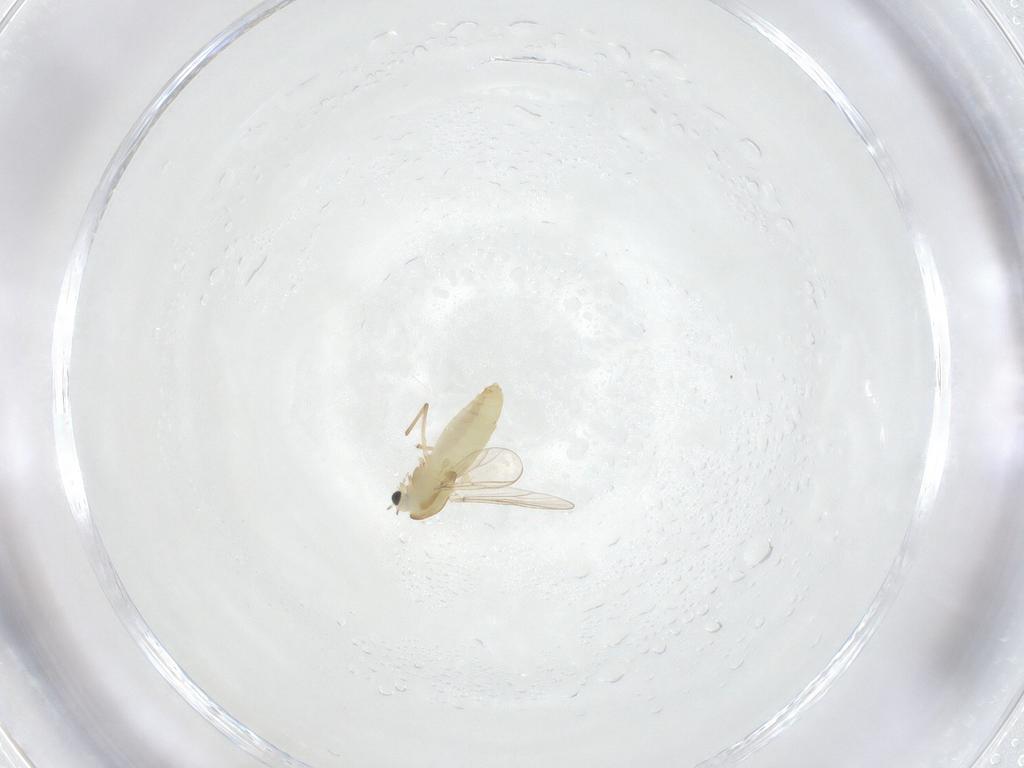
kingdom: Animalia
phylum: Arthropoda
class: Insecta
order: Diptera
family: Chironomidae
